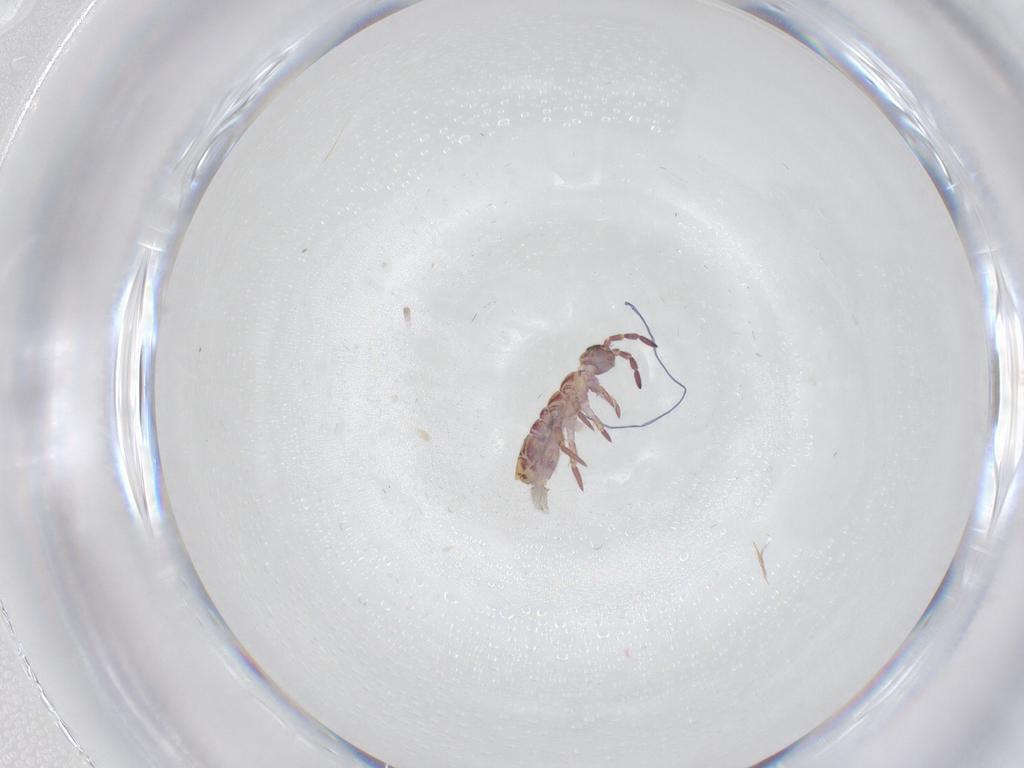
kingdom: Animalia
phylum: Arthropoda
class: Collembola
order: Entomobryomorpha
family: Isotomidae
